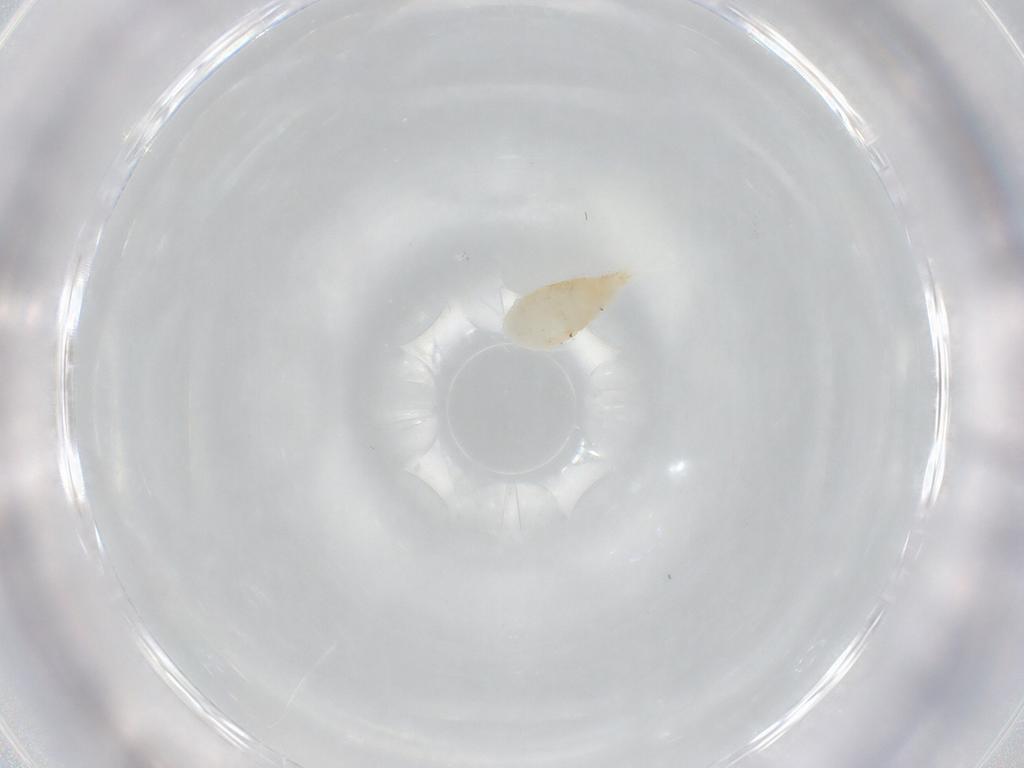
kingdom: Animalia
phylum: Arthropoda
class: Copepoda
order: Cyclopoida
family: Cyclopidae
